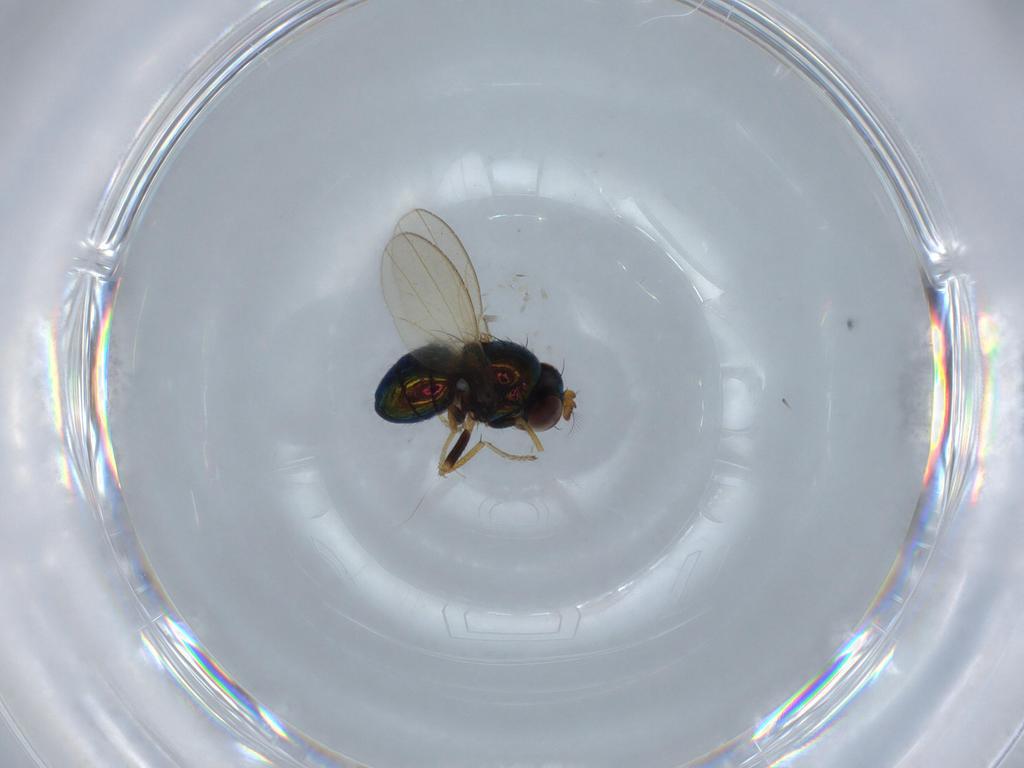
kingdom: Animalia
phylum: Arthropoda
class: Insecta
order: Diptera
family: Ephydridae
